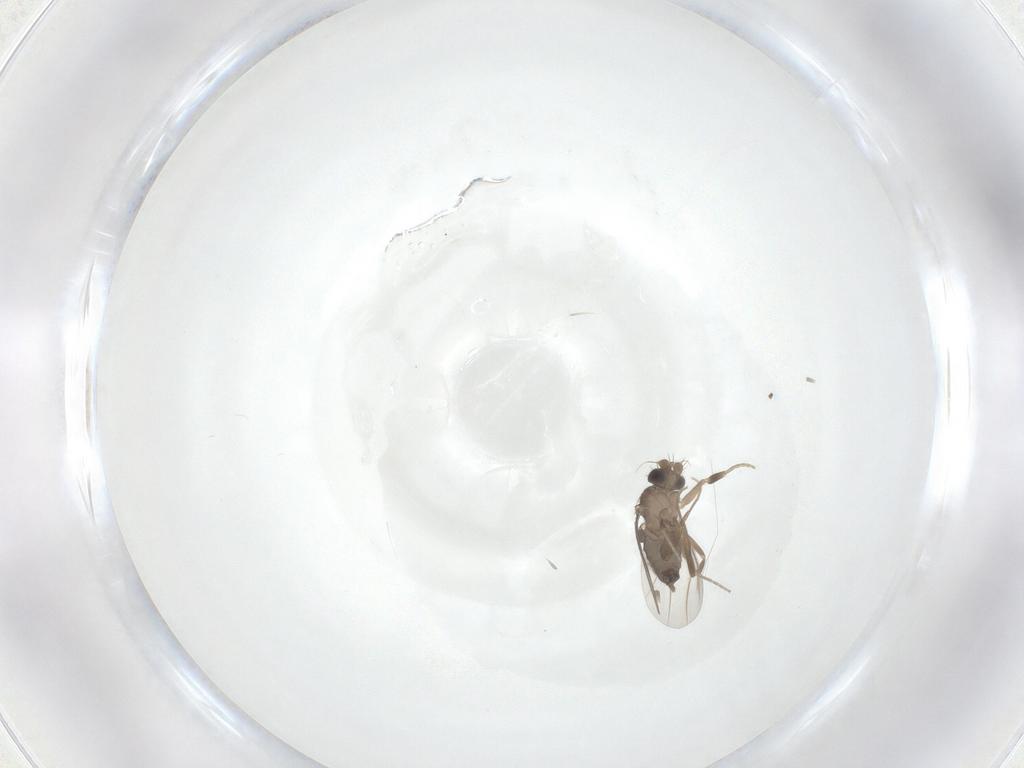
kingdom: Animalia
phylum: Arthropoda
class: Insecta
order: Diptera
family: Phoridae
